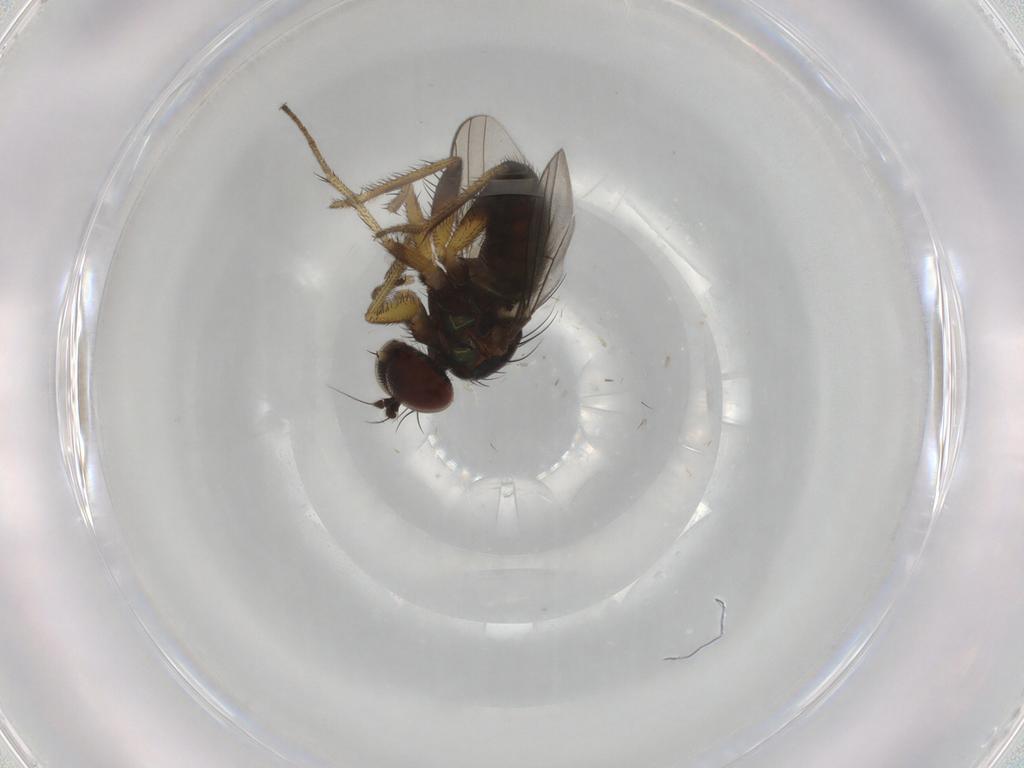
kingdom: Animalia
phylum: Arthropoda
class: Insecta
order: Diptera
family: Dolichopodidae
